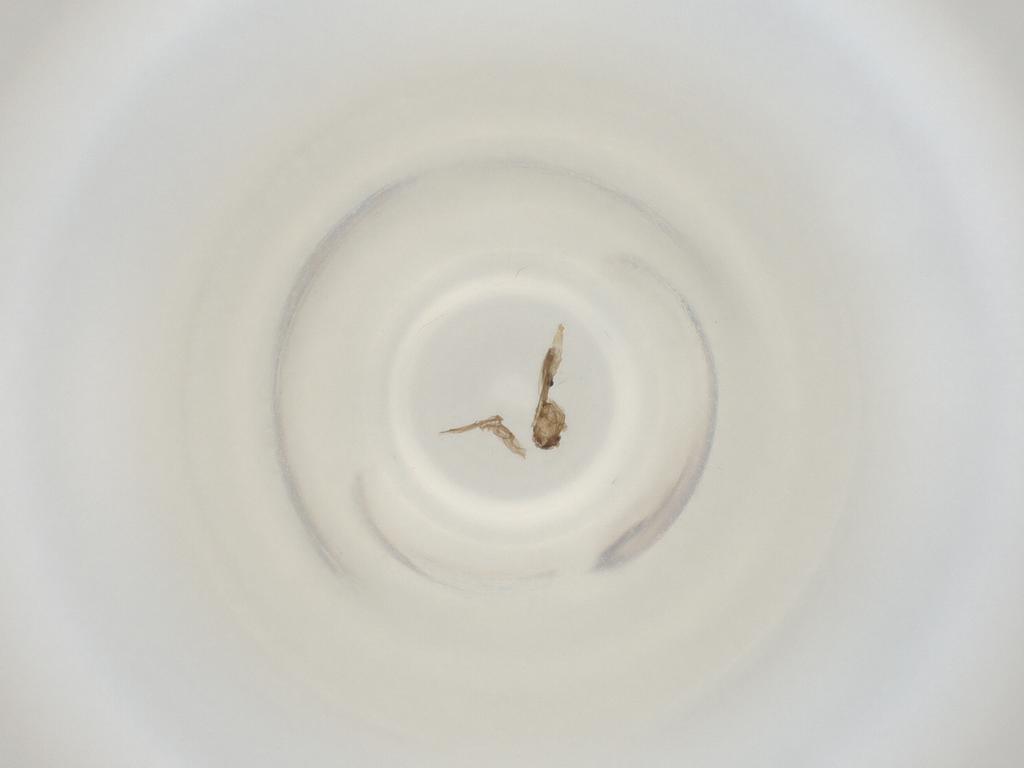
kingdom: Animalia
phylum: Arthropoda
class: Insecta
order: Diptera
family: Cecidomyiidae
